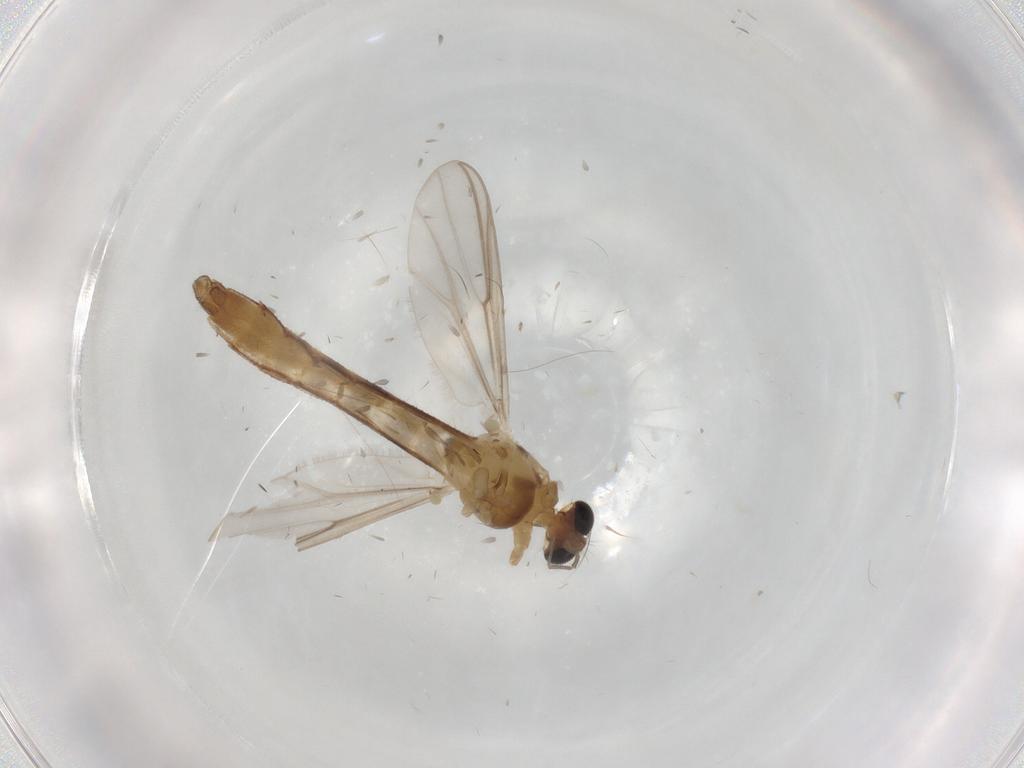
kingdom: Animalia
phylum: Arthropoda
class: Insecta
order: Diptera
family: Chironomidae
